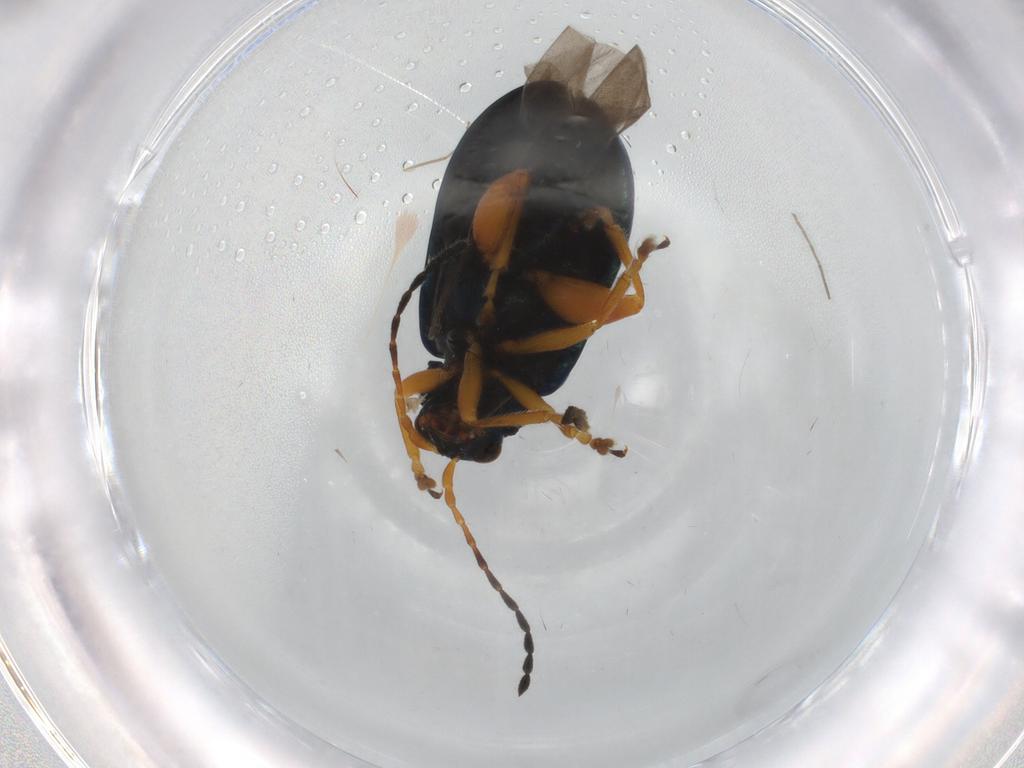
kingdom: Animalia
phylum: Arthropoda
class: Insecta
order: Coleoptera
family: Chrysomelidae
